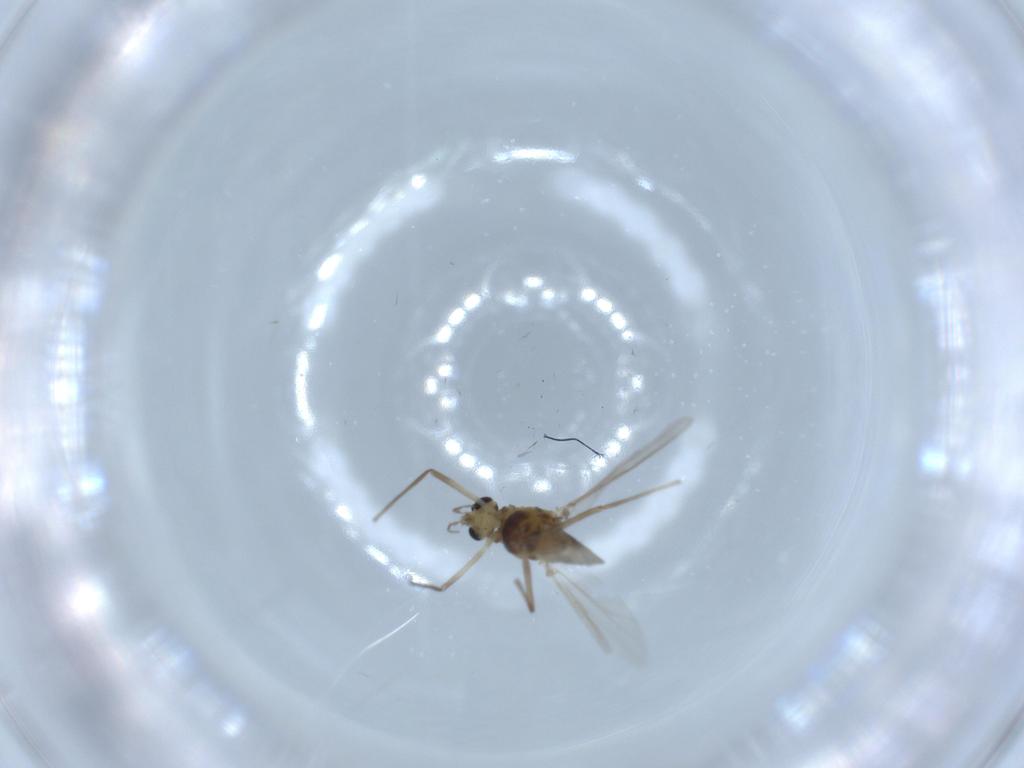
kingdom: Animalia
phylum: Arthropoda
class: Insecta
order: Diptera
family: Chironomidae
